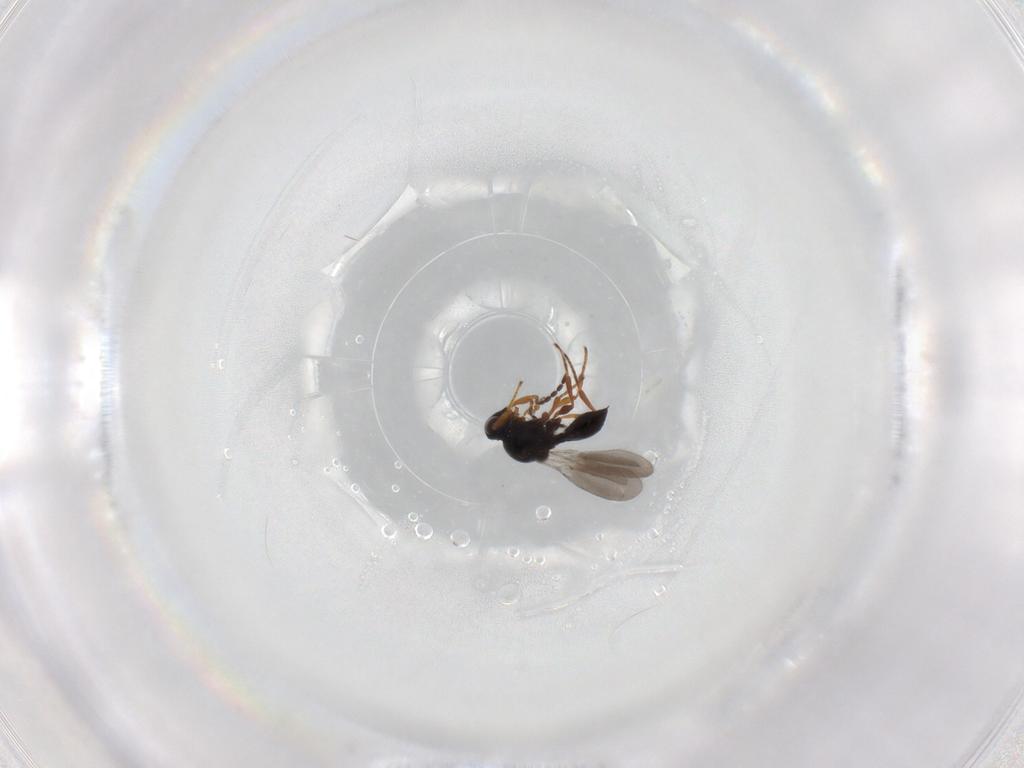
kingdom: Animalia
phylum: Arthropoda
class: Insecta
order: Hymenoptera
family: Platygastridae
